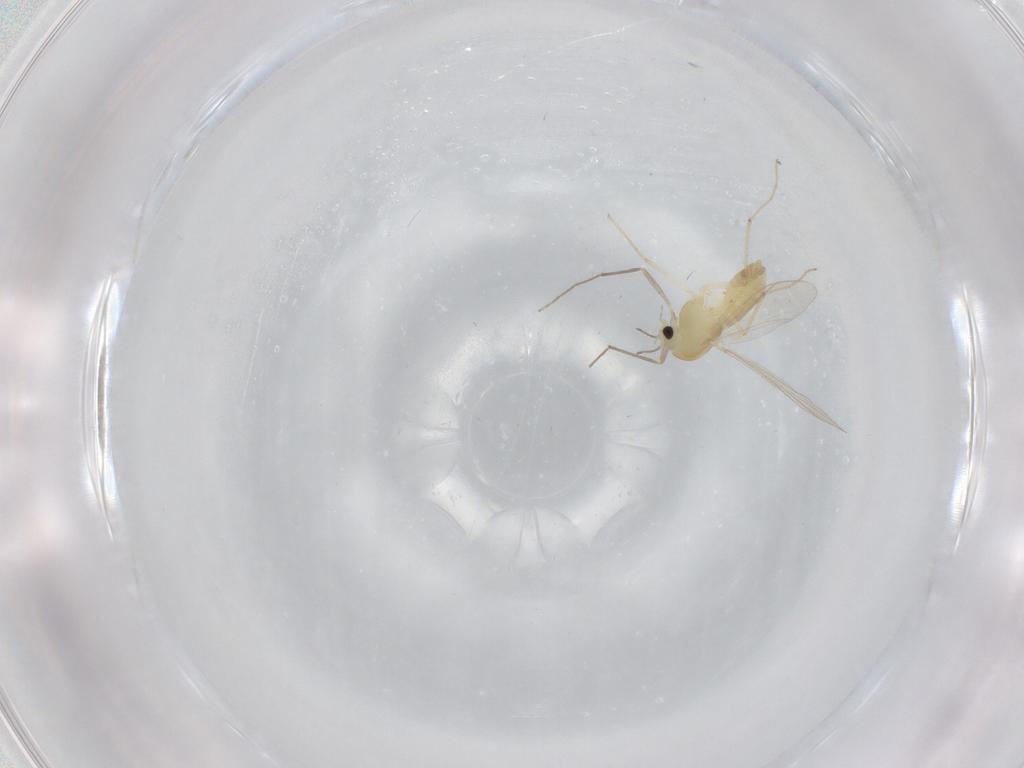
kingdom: Animalia
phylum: Arthropoda
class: Insecta
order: Diptera
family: Chironomidae
